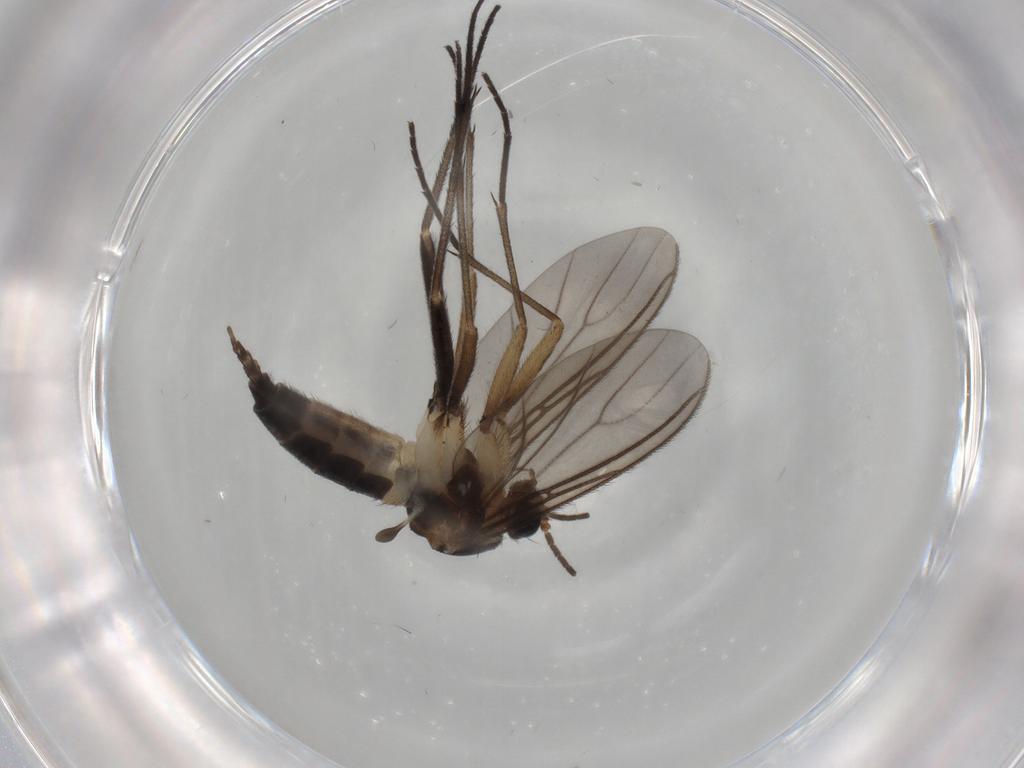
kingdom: Animalia
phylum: Arthropoda
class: Insecta
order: Diptera
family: Sciaridae
